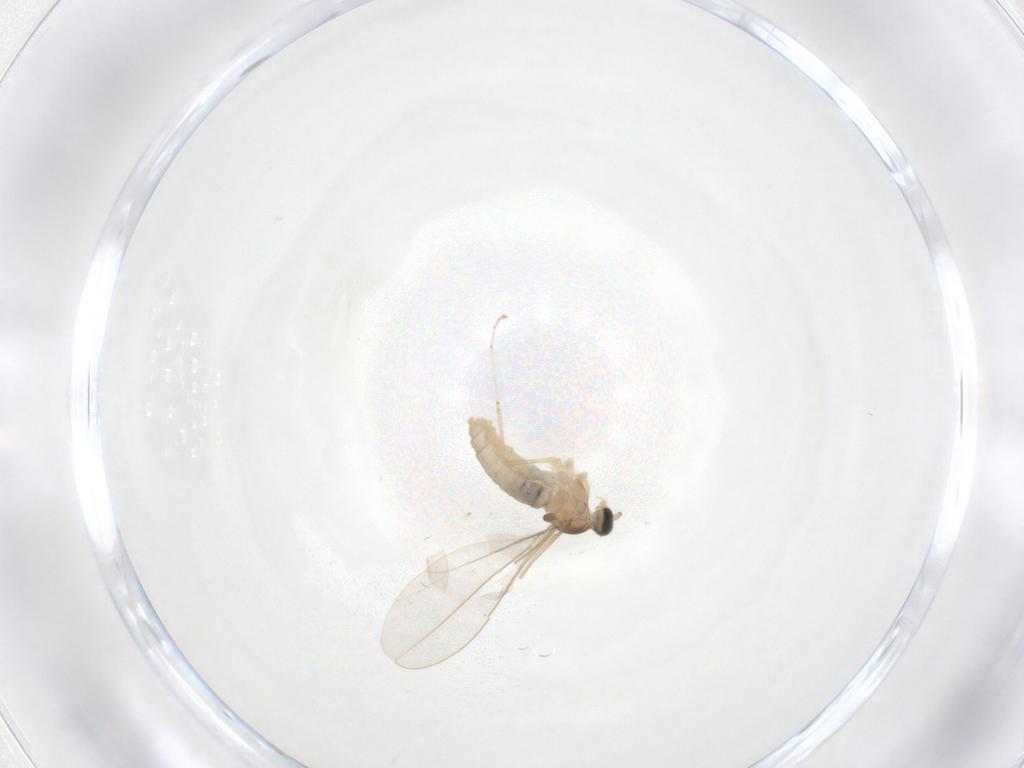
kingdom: Animalia
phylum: Arthropoda
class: Insecta
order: Diptera
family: Cecidomyiidae
